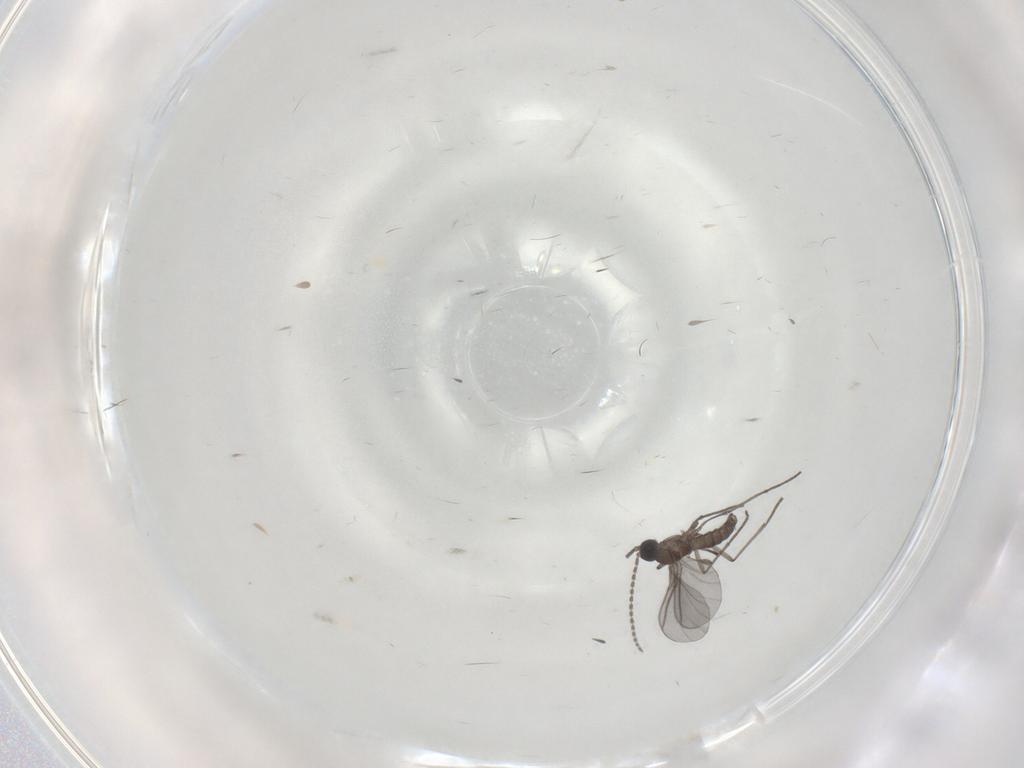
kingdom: Animalia
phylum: Arthropoda
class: Insecta
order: Diptera
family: Sciaridae
